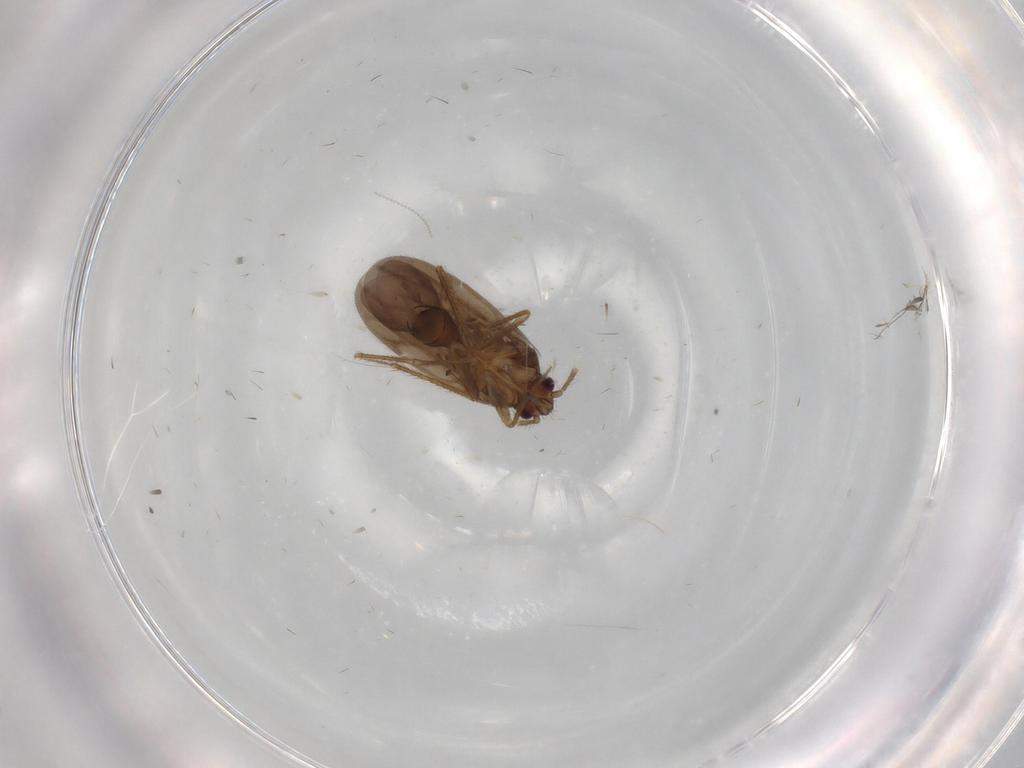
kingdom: Animalia
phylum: Arthropoda
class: Insecta
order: Hemiptera
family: Ceratocombidae
